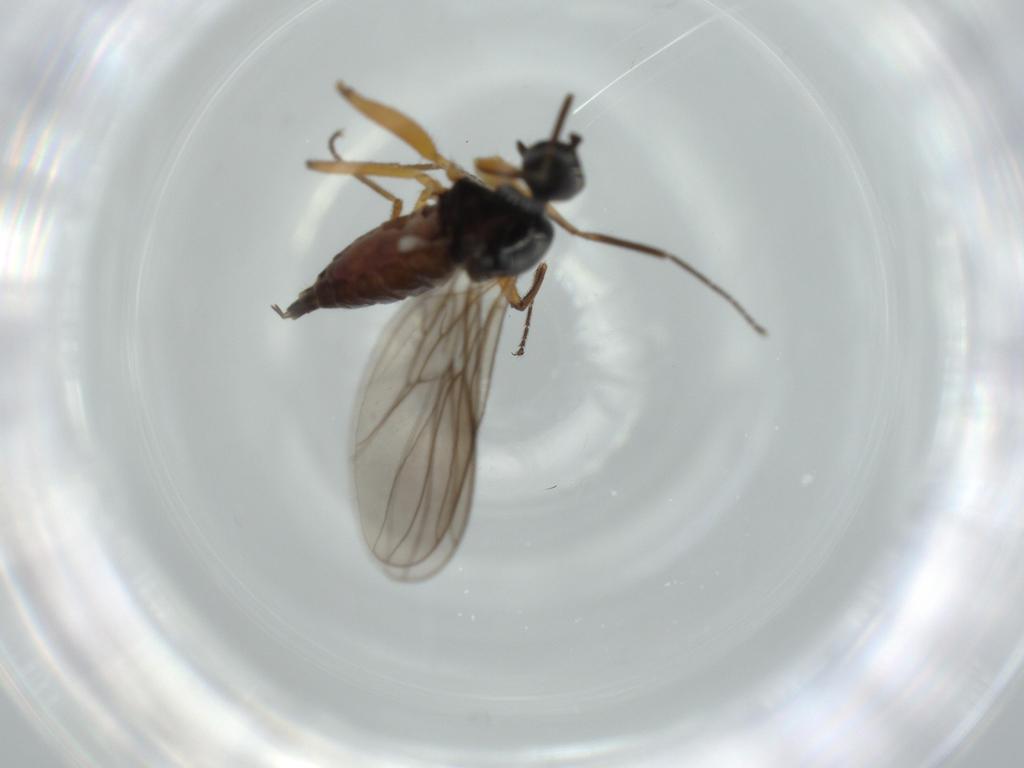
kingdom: Animalia
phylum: Arthropoda
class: Insecta
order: Diptera
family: Hybotidae
